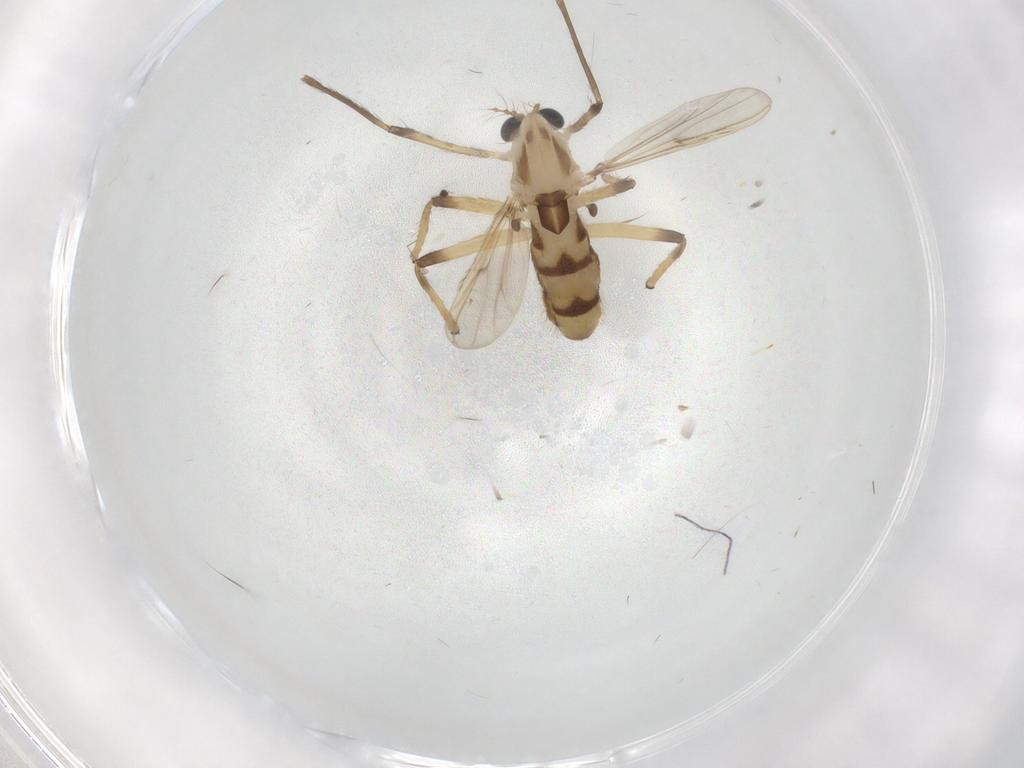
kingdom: Animalia
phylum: Arthropoda
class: Insecta
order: Diptera
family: Chironomidae
